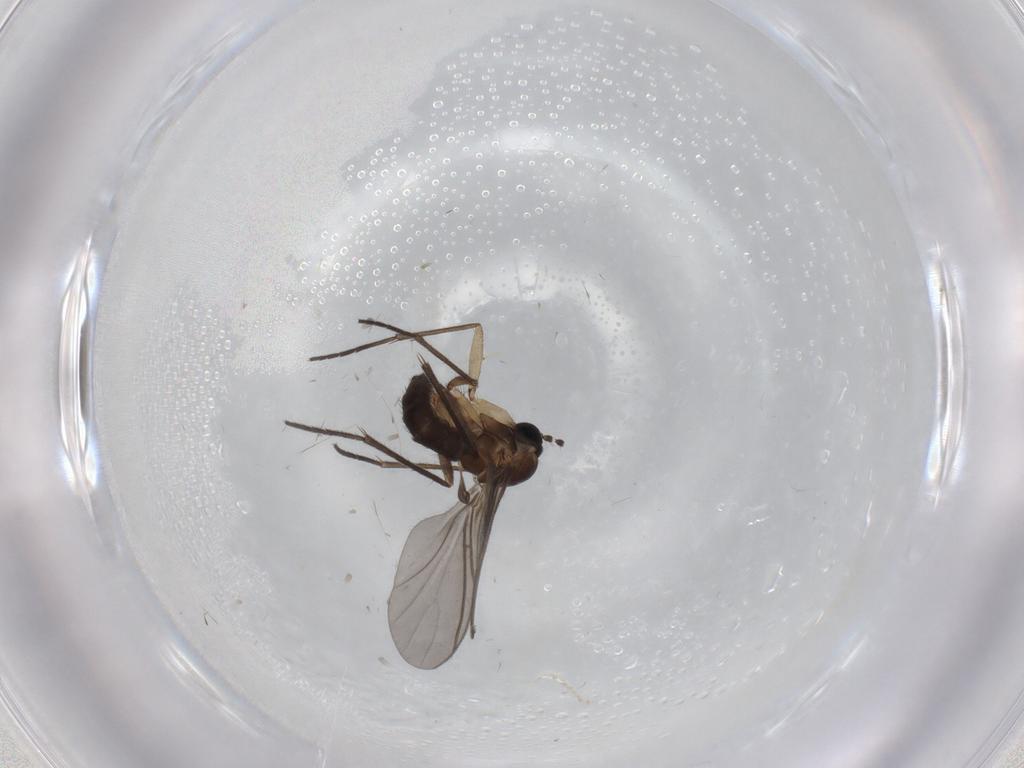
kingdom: Animalia
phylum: Arthropoda
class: Insecta
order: Diptera
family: Sciaridae
